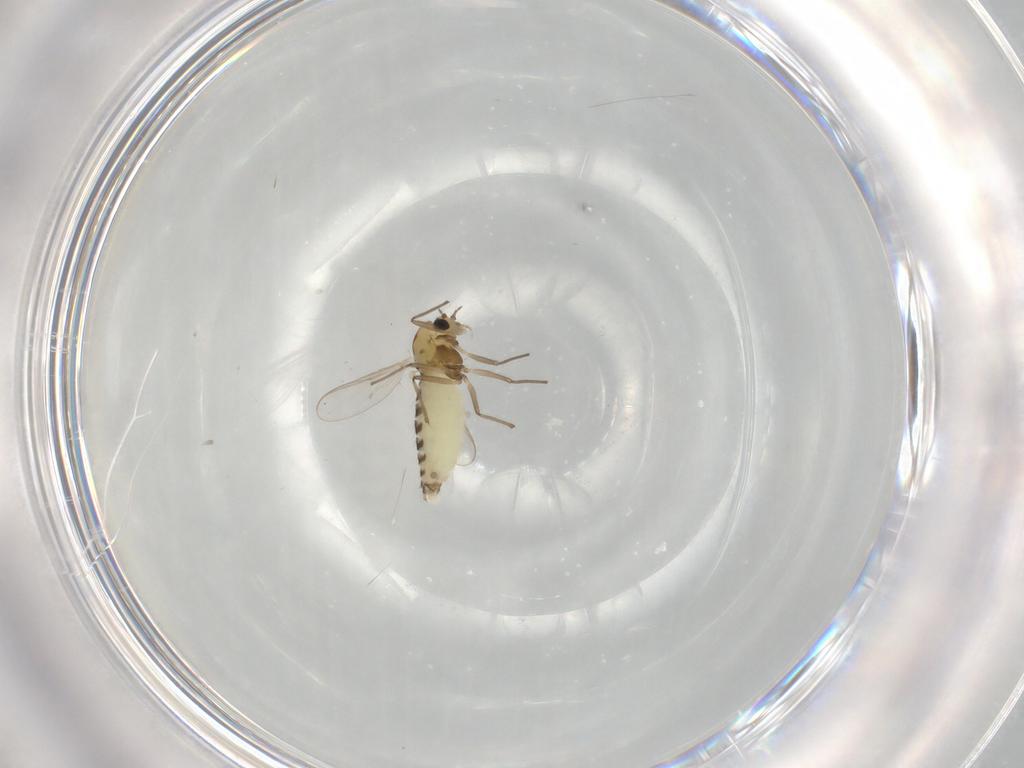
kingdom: Animalia
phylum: Arthropoda
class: Insecta
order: Diptera
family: Chironomidae
